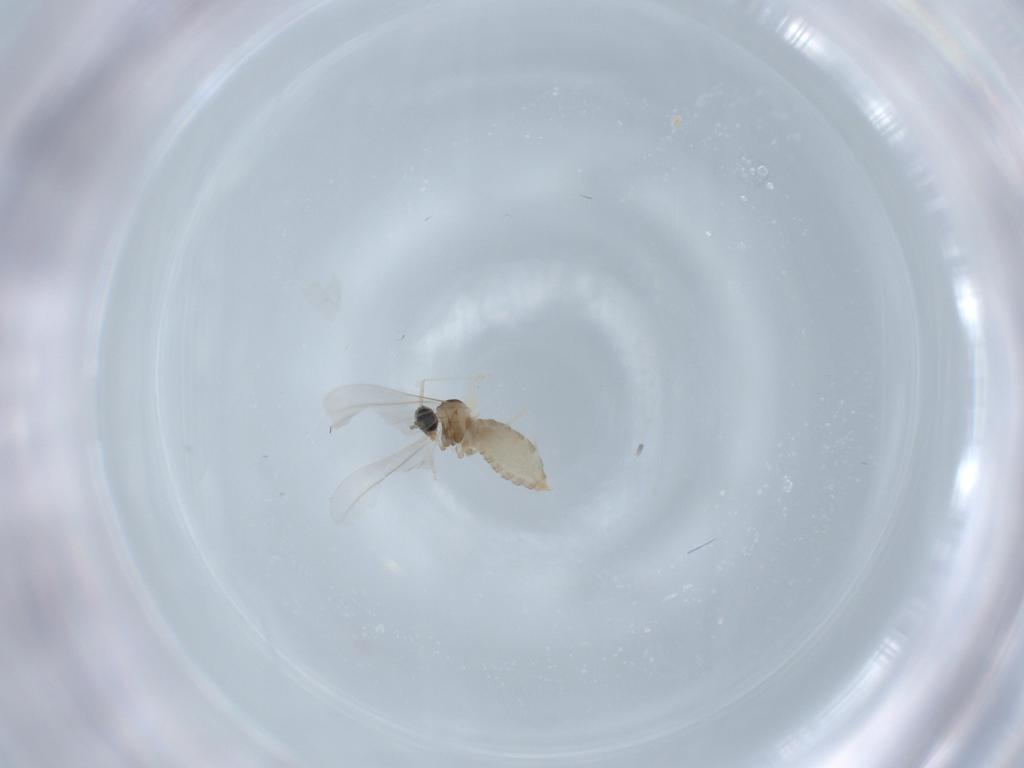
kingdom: Animalia
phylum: Arthropoda
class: Insecta
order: Diptera
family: Cecidomyiidae
